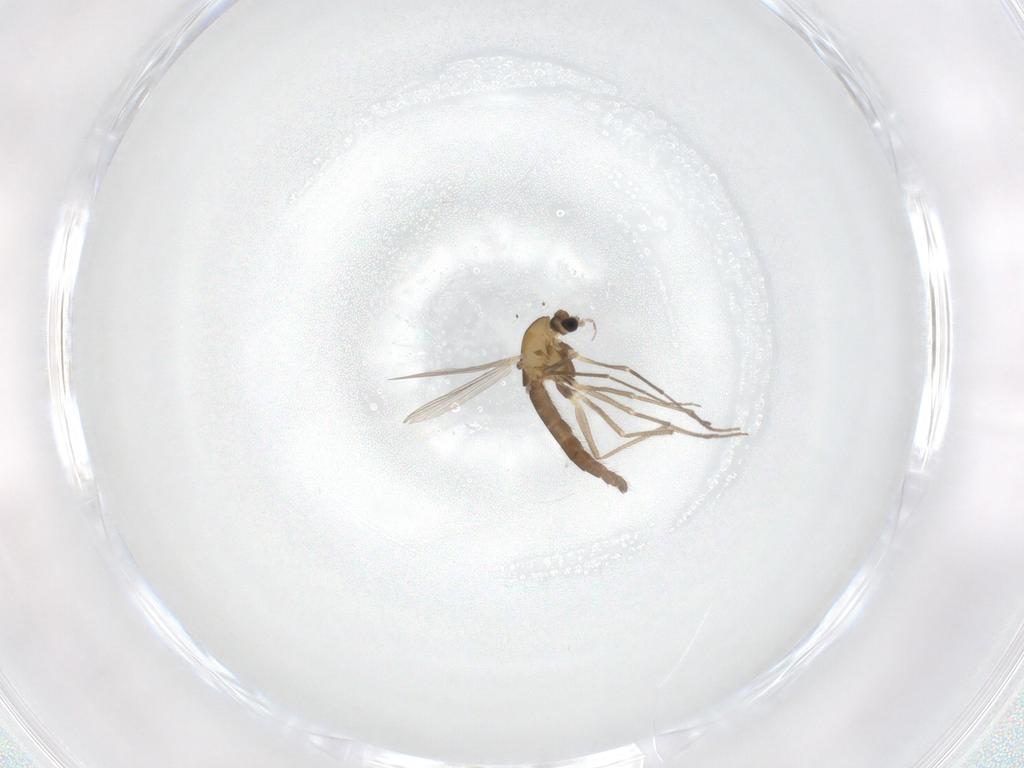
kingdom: Animalia
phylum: Arthropoda
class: Insecta
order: Diptera
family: Chironomidae
